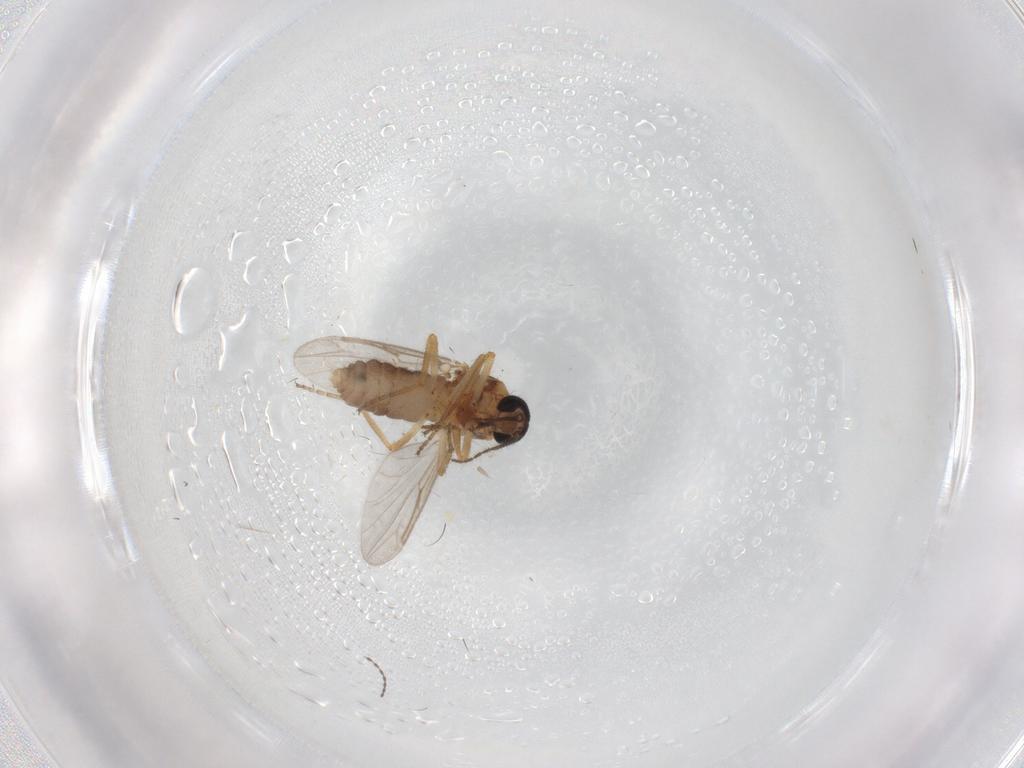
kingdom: Animalia
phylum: Arthropoda
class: Insecta
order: Diptera
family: Ceratopogonidae
